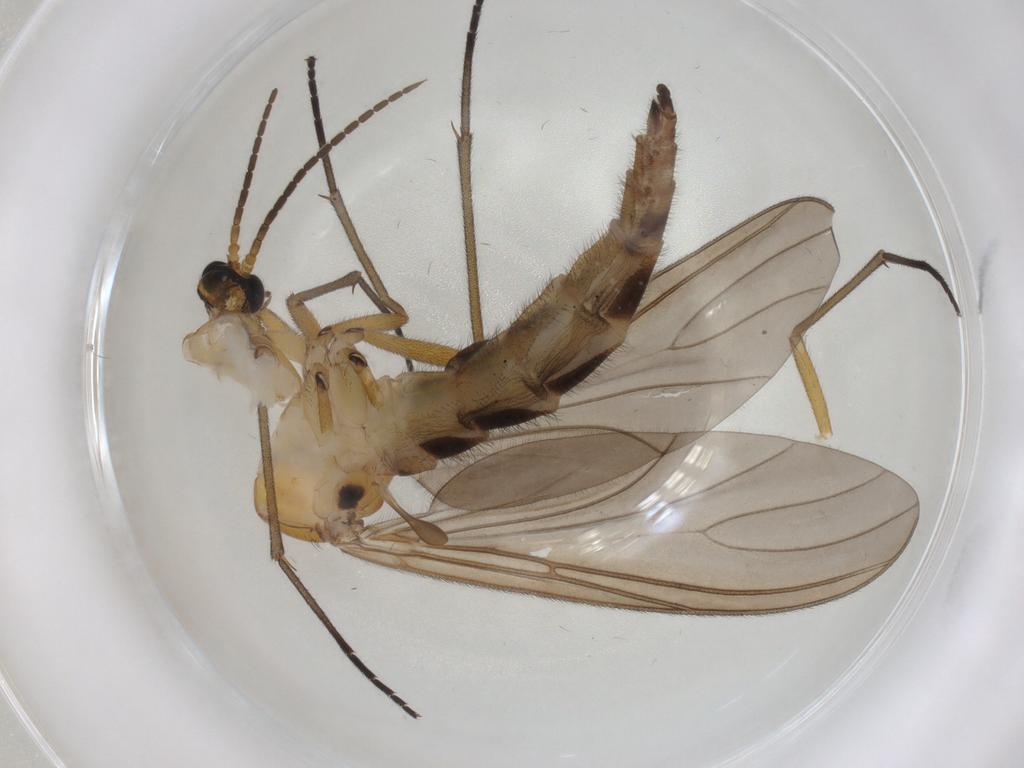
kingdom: Animalia
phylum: Arthropoda
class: Insecta
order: Diptera
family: Sciaridae
